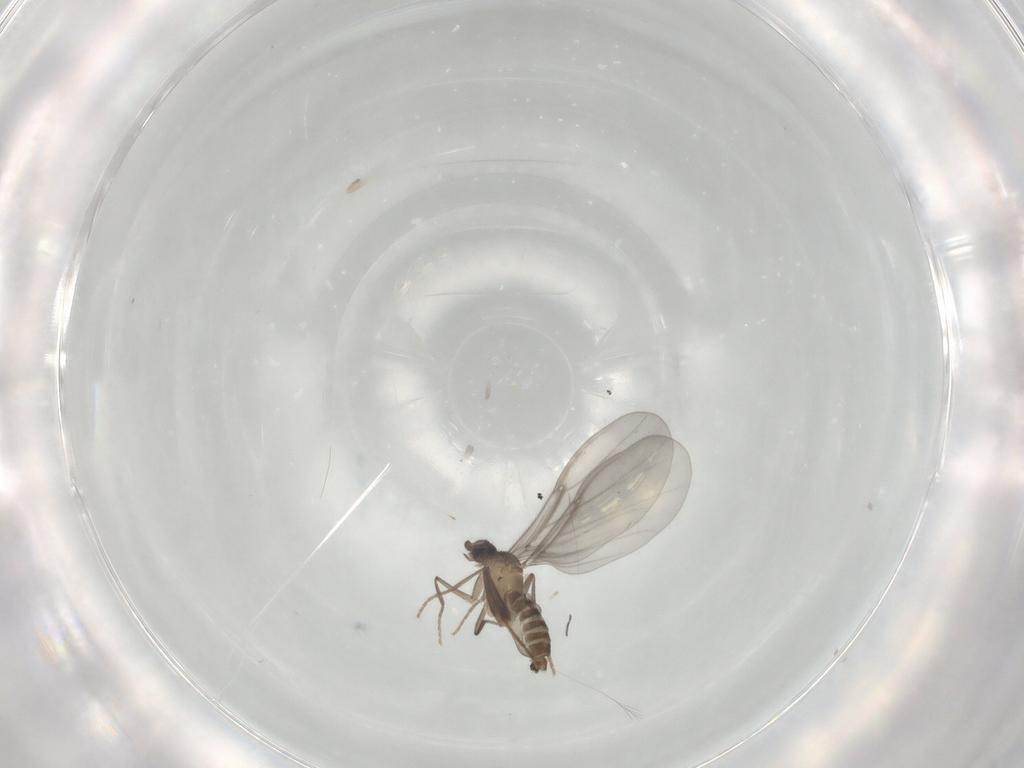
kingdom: Animalia
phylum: Arthropoda
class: Insecta
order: Diptera
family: Phoridae
